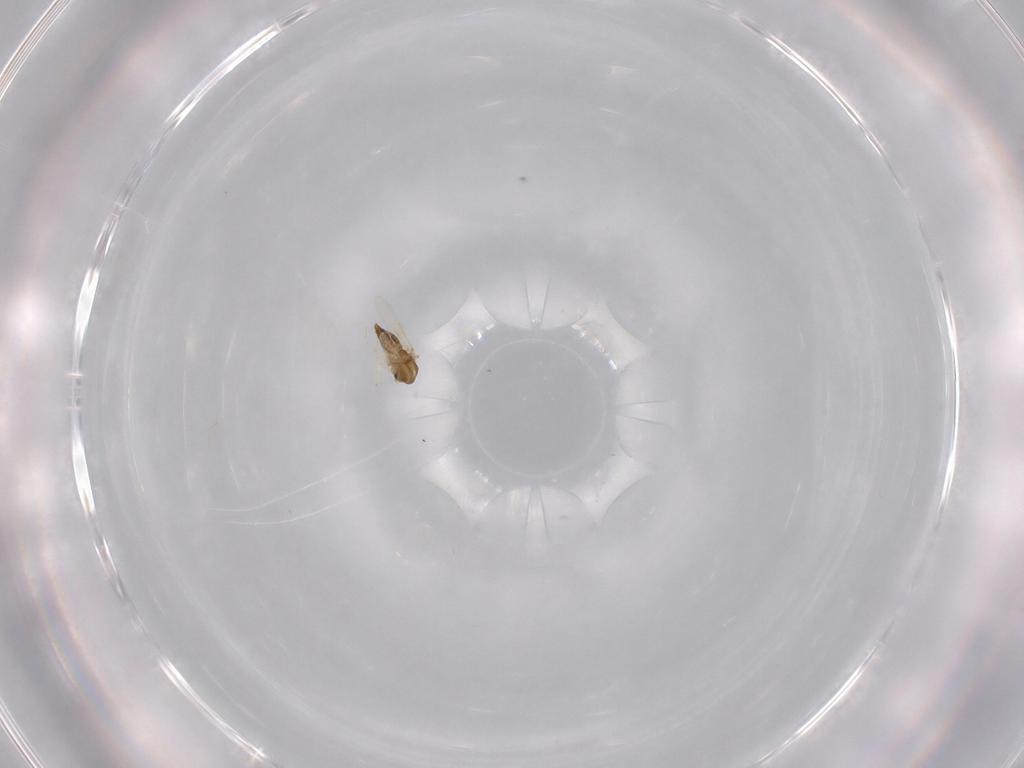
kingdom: Animalia
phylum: Arthropoda
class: Insecta
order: Diptera
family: Chironomidae
